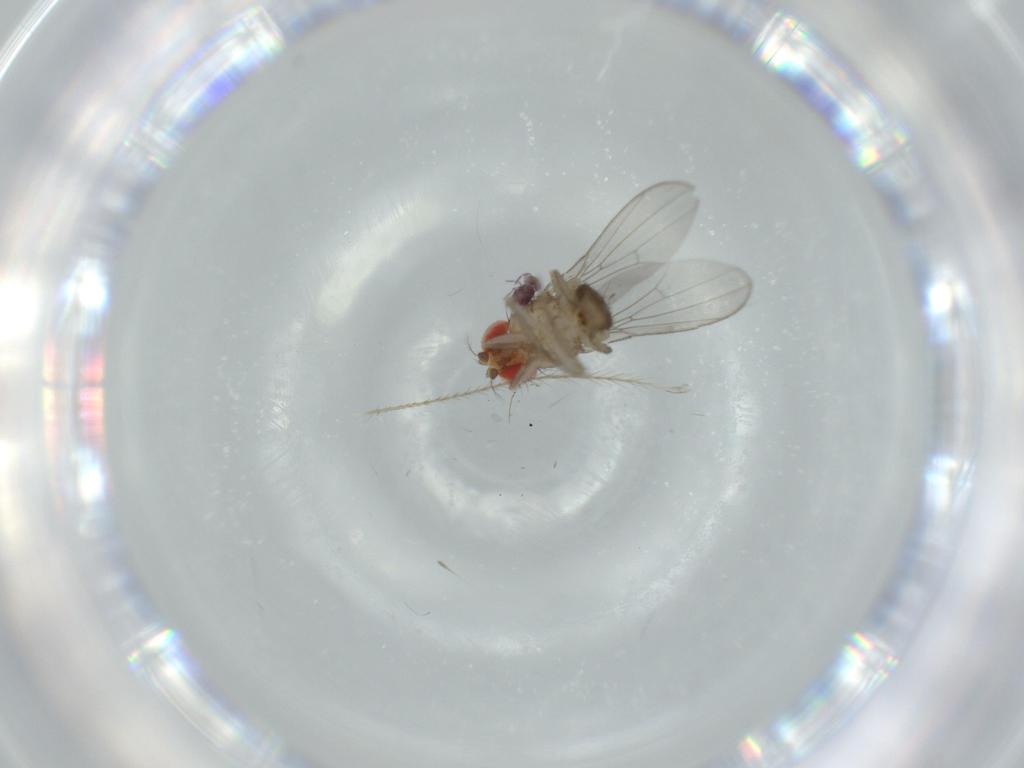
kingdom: Animalia
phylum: Arthropoda
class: Insecta
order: Diptera
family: Drosophilidae
